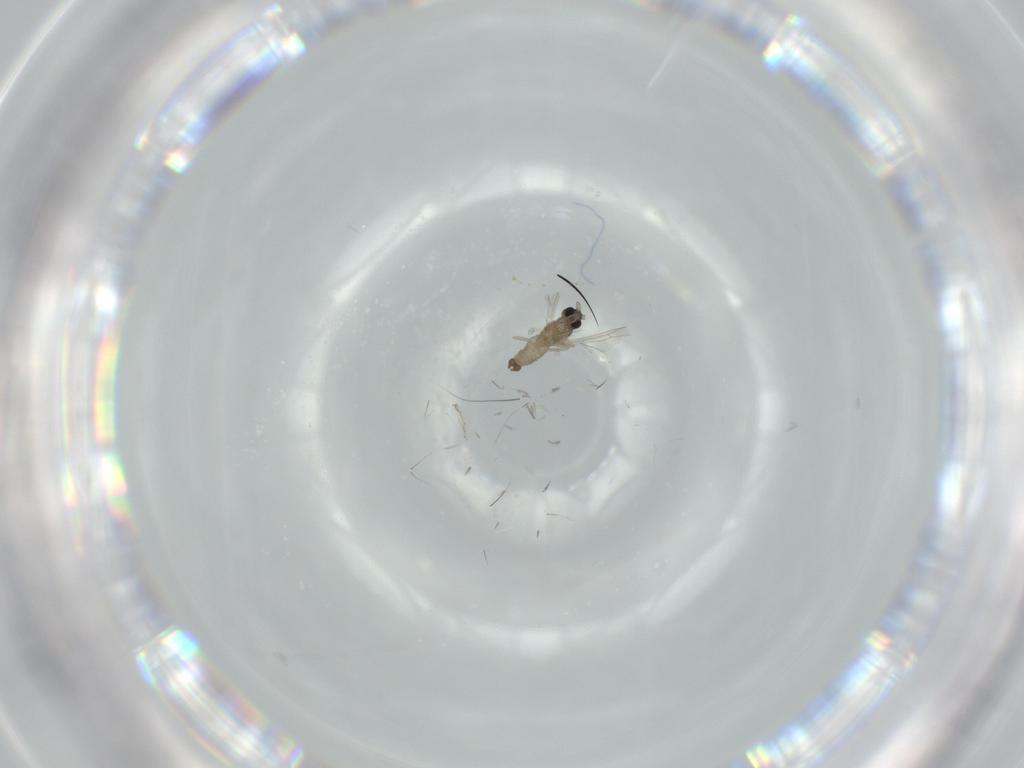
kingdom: Animalia
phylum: Arthropoda
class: Insecta
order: Diptera
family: Cecidomyiidae
